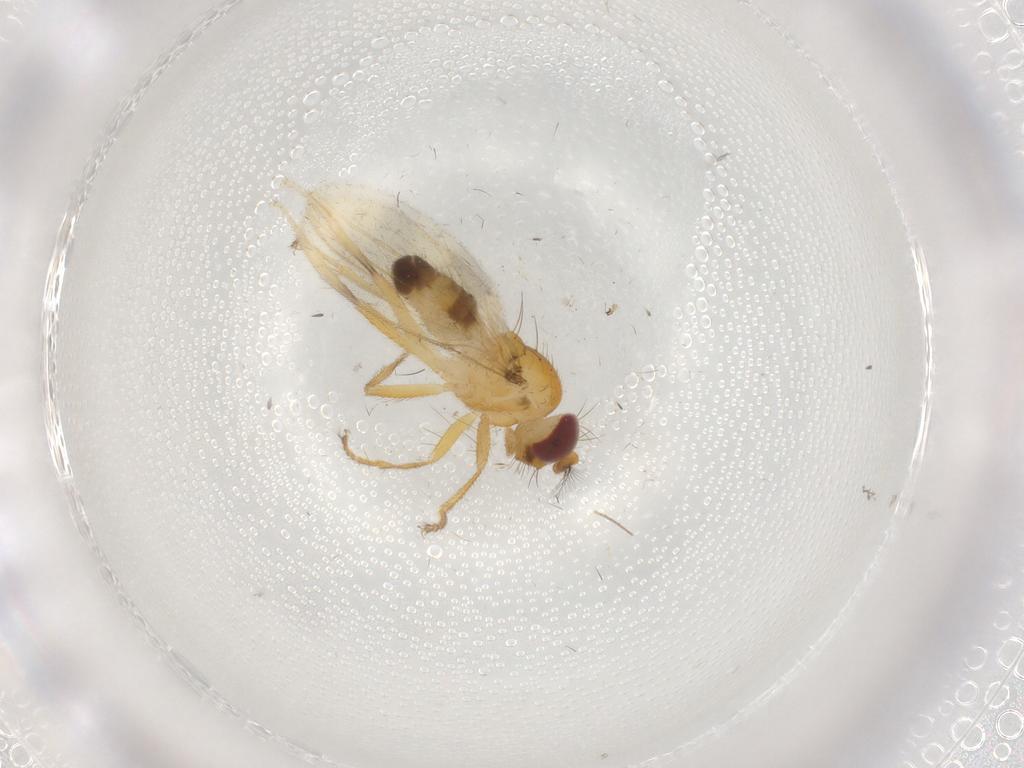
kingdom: Animalia
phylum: Arthropoda
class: Insecta
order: Diptera
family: Periscelididae
